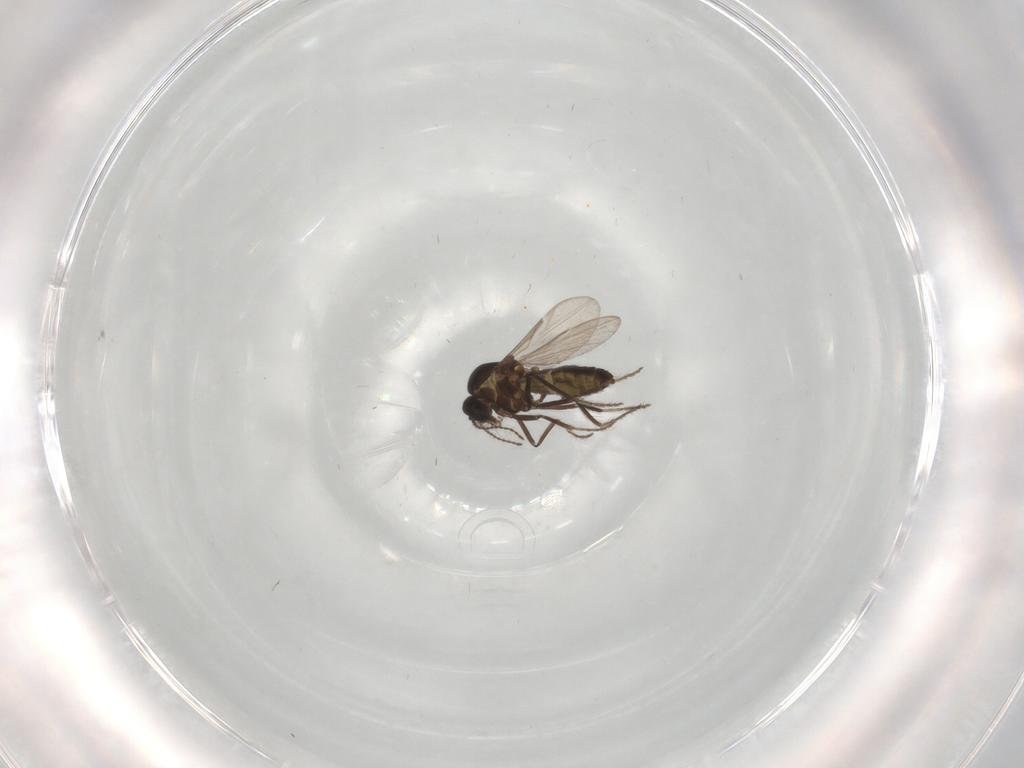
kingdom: Animalia
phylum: Arthropoda
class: Insecta
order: Diptera
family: Ceratopogonidae
